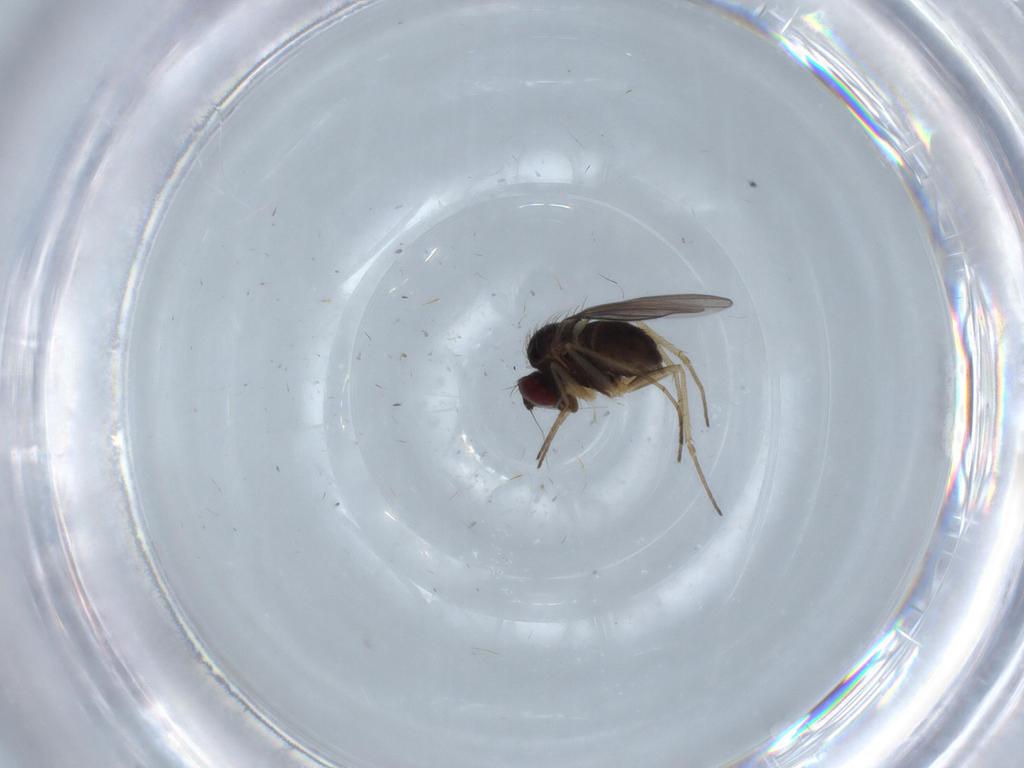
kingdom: Animalia
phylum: Arthropoda
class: Insecta
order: Diptera
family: Dolichopodidae
